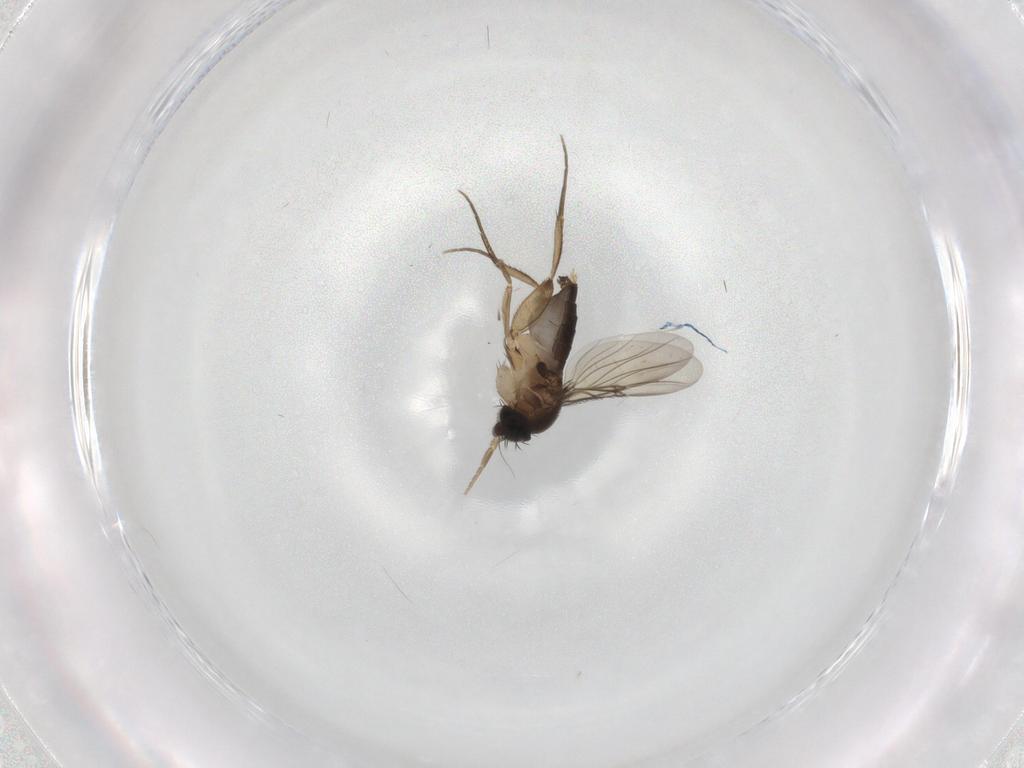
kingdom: Animalia
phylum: Arthropoda
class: Insecta
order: Diptera
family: Phoridae
